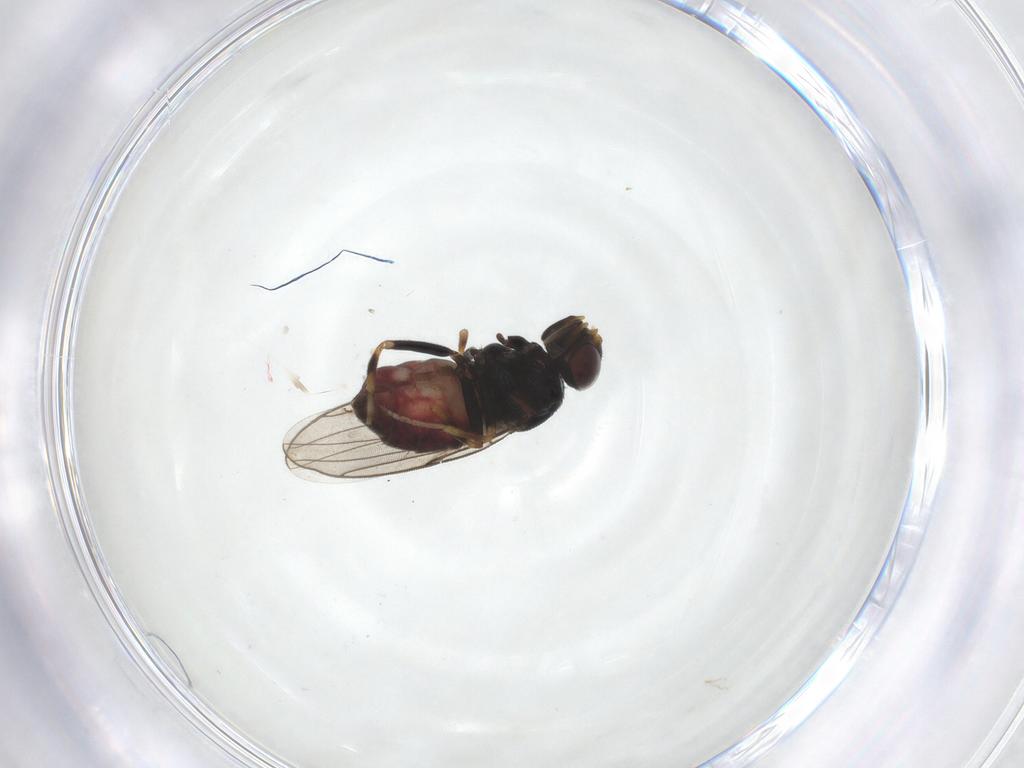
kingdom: Animalia
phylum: Arthropoda
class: Insecta
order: Diptera
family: Chloropidae
